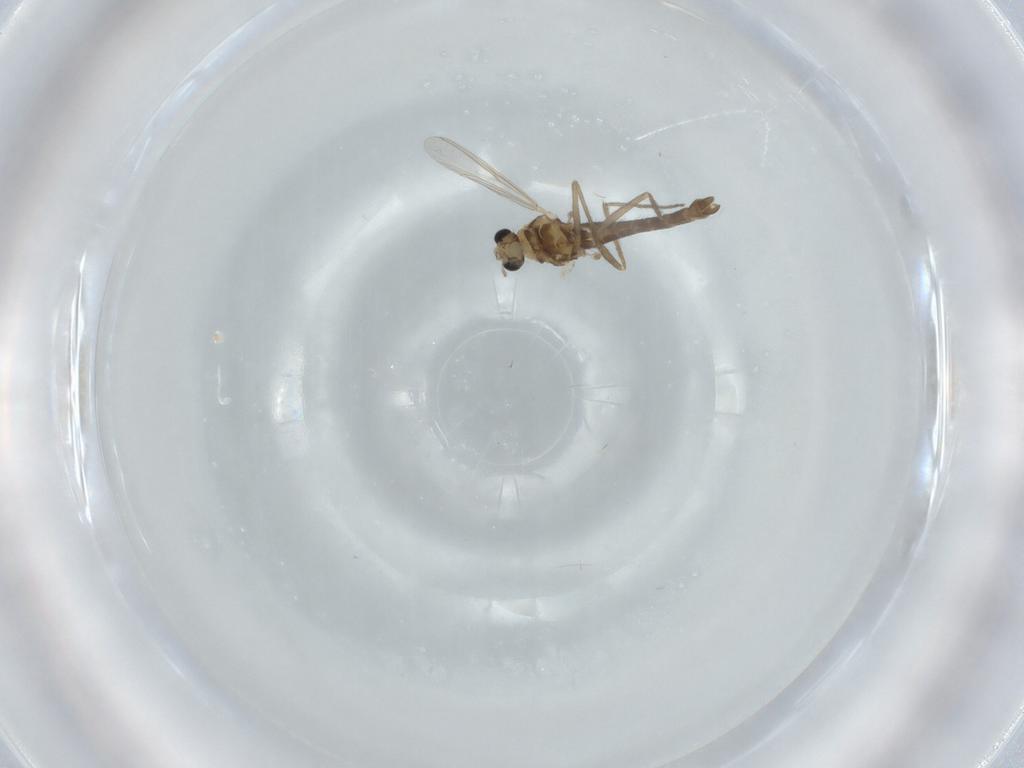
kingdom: Animalia
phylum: Arthropoda
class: Insecta
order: Diptera
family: Chironomidae
